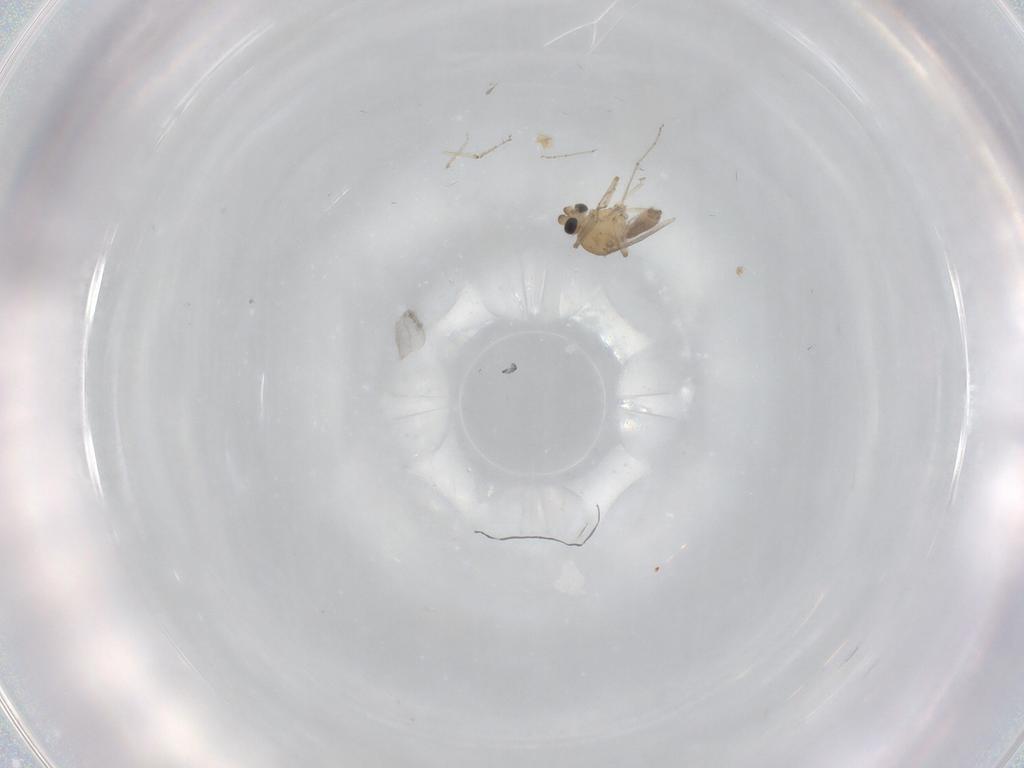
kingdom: Animalia
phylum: Arthropoda
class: Insecta
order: Diptera
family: Ceratopogonidae
